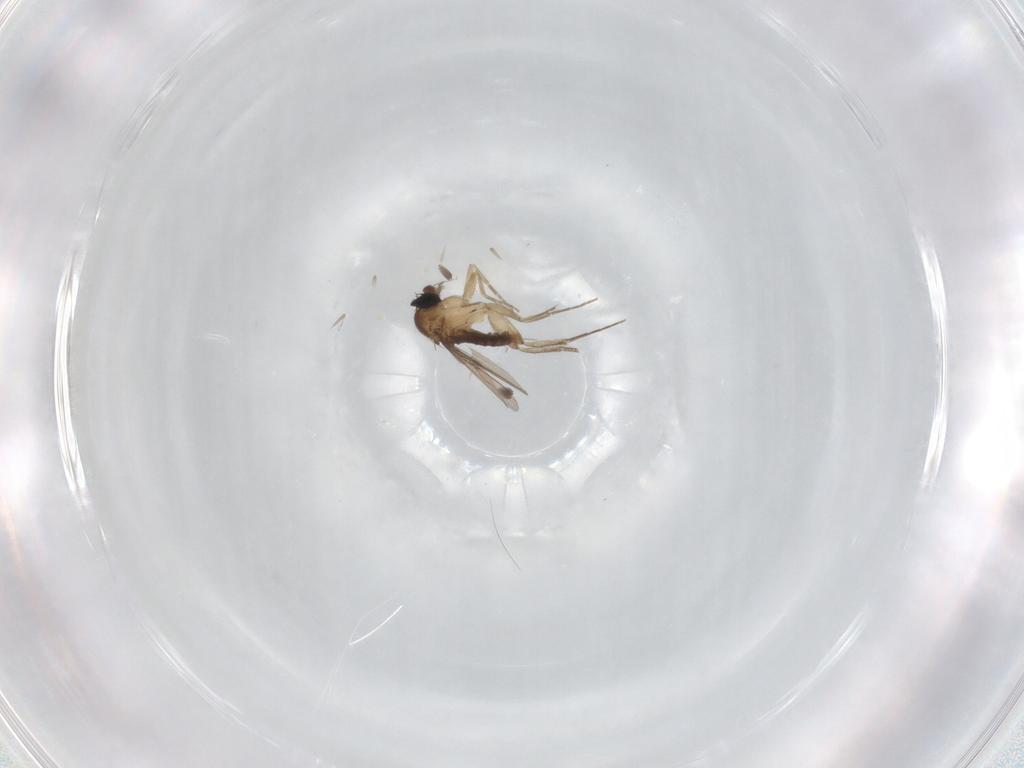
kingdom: Animalia
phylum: Arthropoda
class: Insecta
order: Diptera
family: Phoridae
